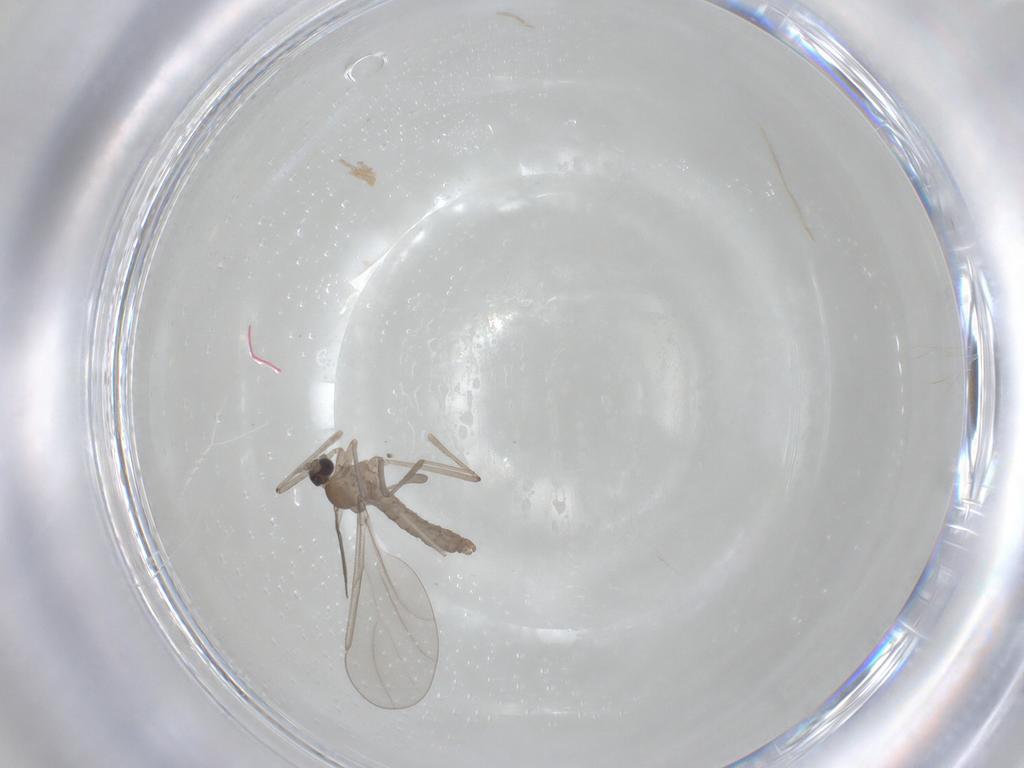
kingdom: Animalia
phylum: Arthropoda
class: Insecta
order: Diptera
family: Cecidomyiidae
